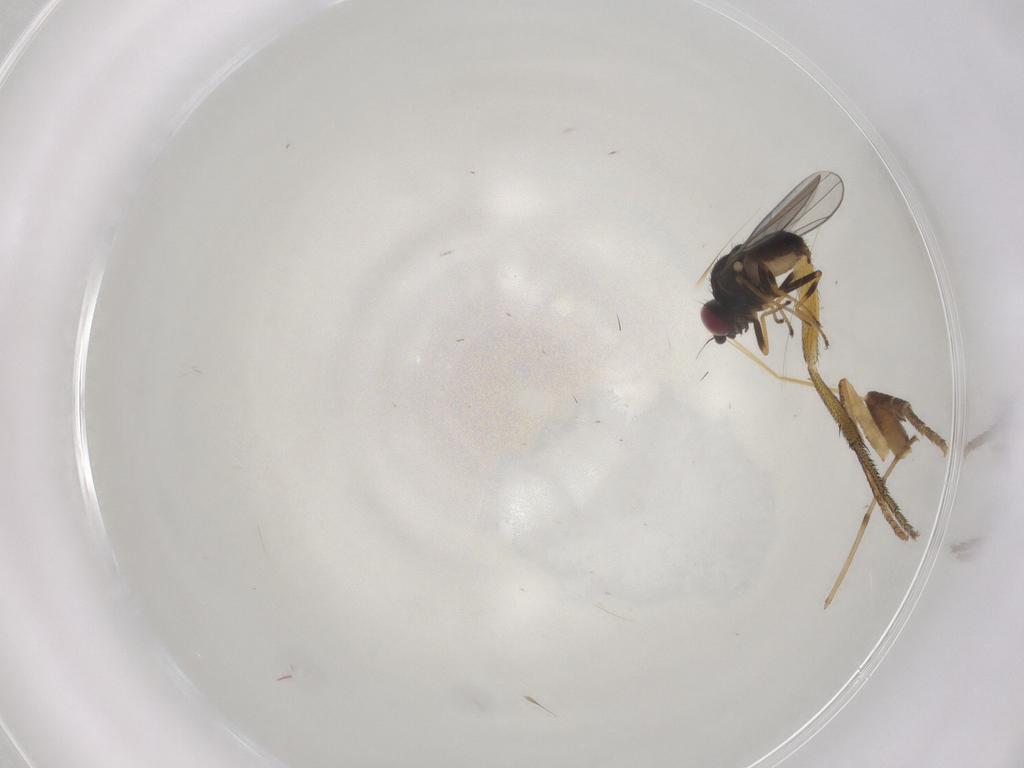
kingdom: Animalia
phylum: Arthropoda
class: Insecta
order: Diptera
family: Chloropidae
